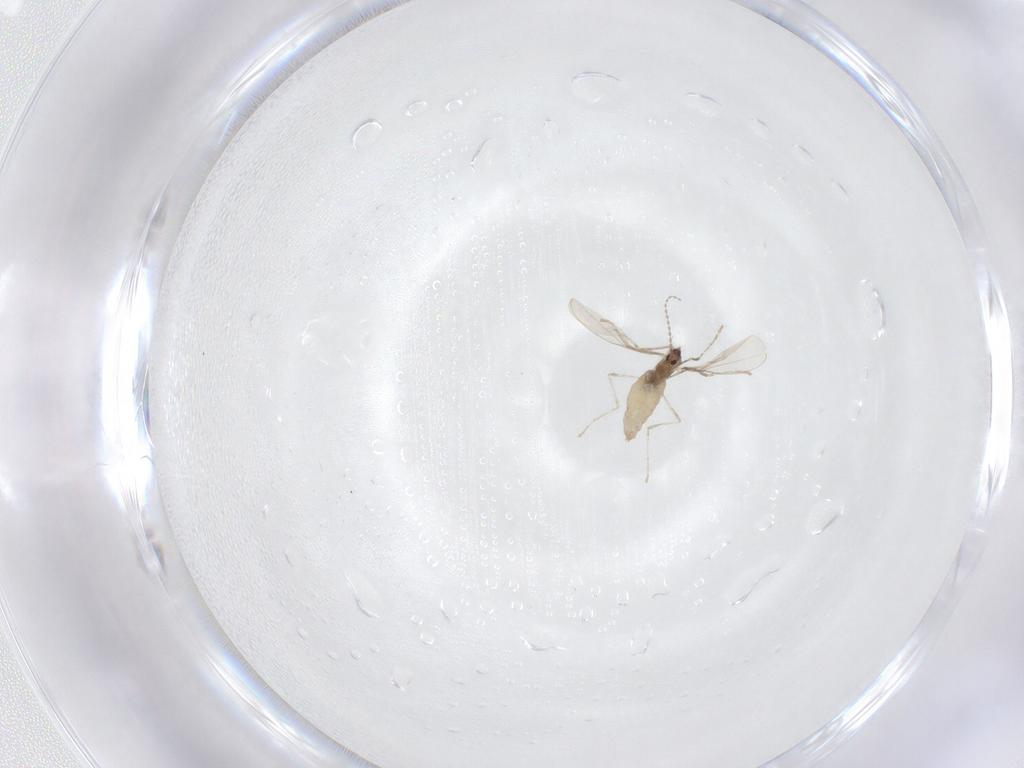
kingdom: Animalia
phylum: Arthropoda
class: Insecta
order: Diptera
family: Cecidomyiidae
